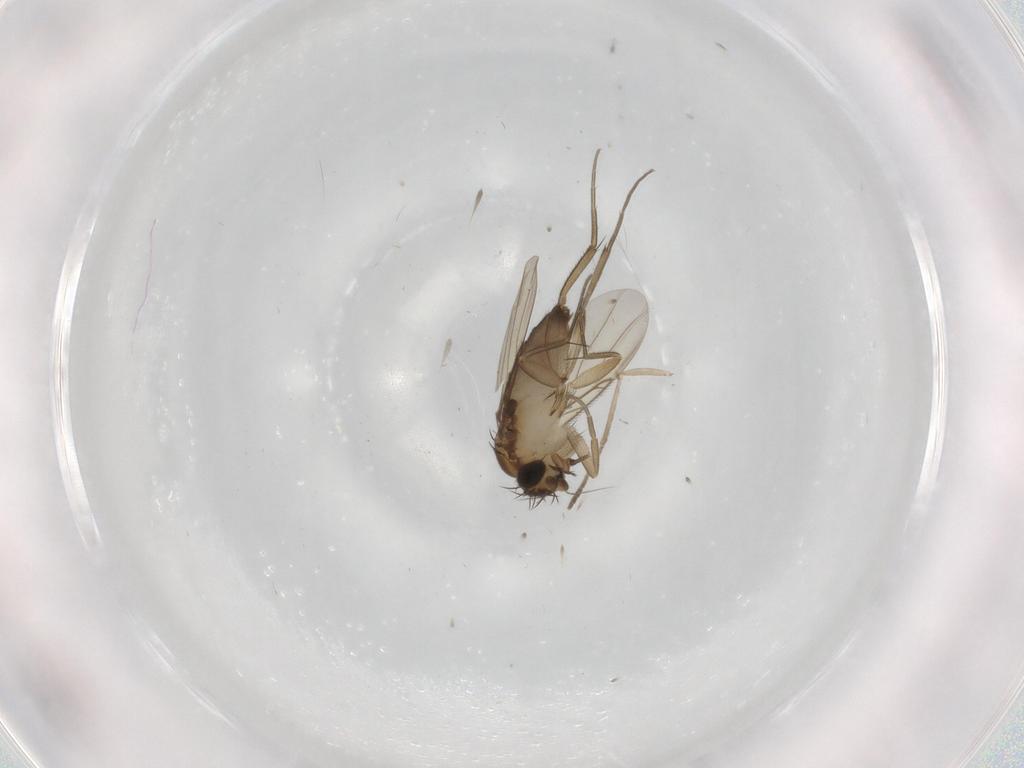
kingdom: Animalia
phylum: Arthropoda
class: Insecta
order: Diptera
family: Psychodidae
